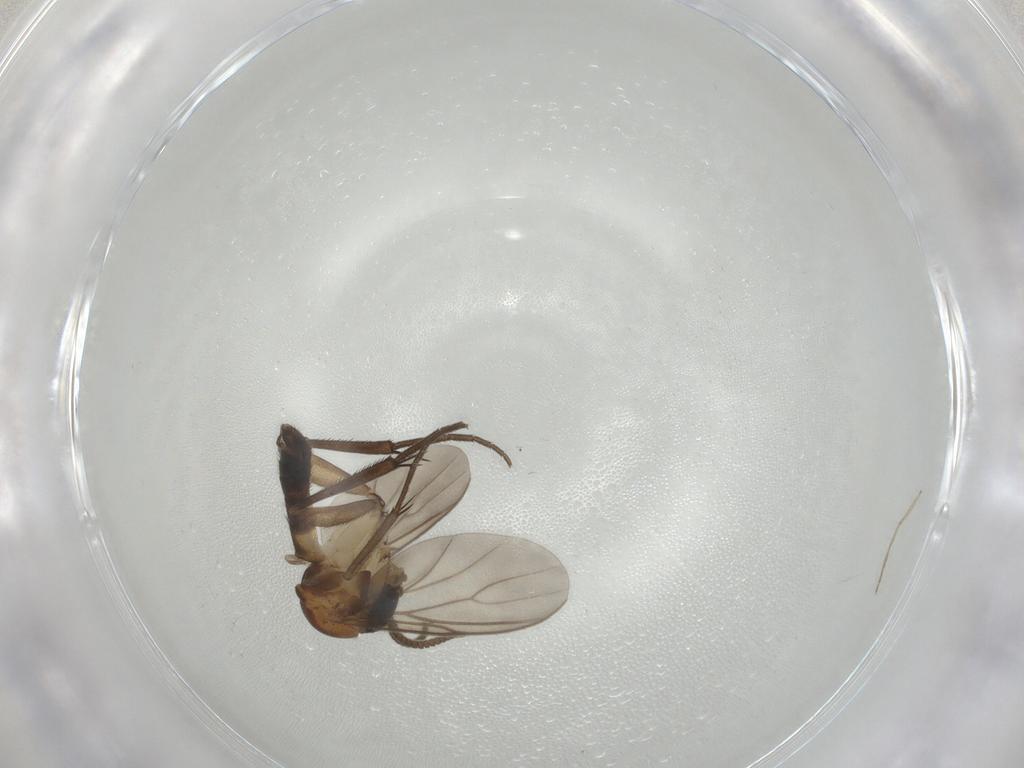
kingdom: Animalia
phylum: Arthropoda
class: Insecta
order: Diptera
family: Mycetophilidae
